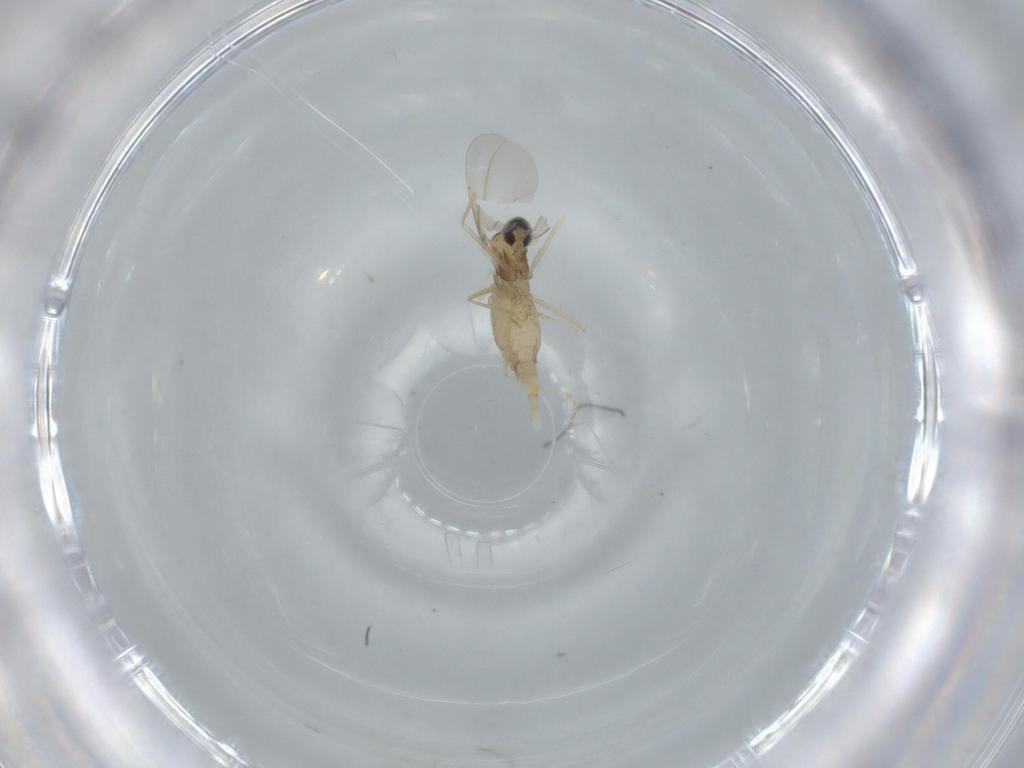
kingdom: Animalia
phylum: Arthropoda
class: Insecta
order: Diptera
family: Cecidomyiidae
